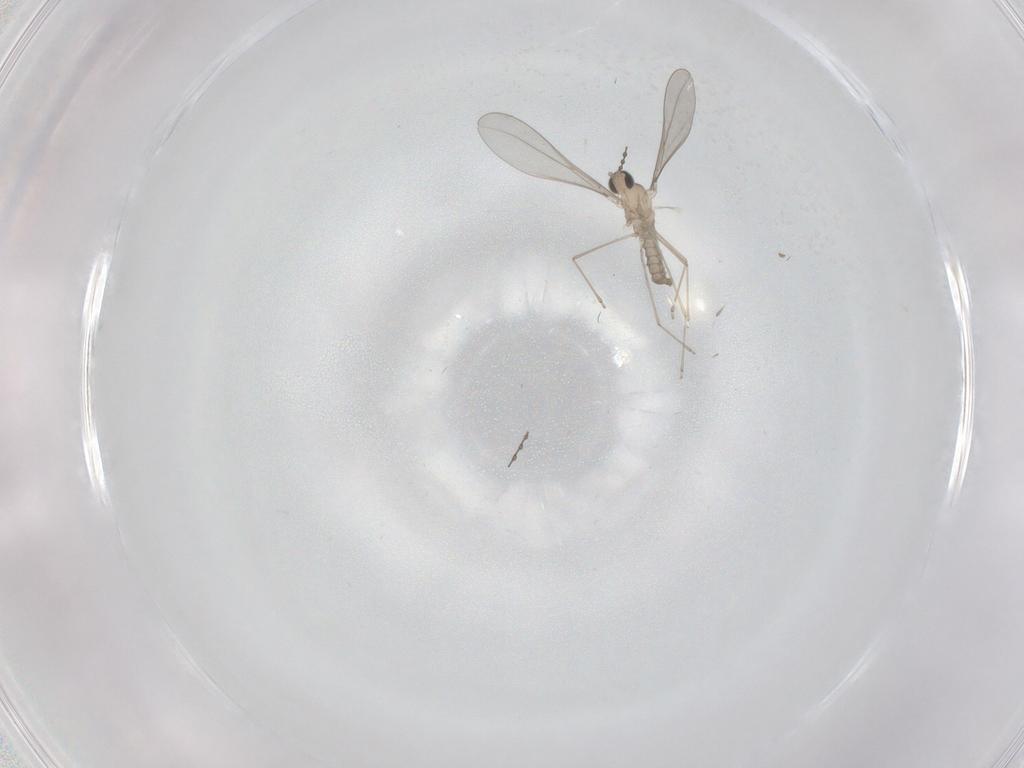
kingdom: Animalia
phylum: Arthropoda
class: Insecta
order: Diptera
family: Cecidomyiidae
